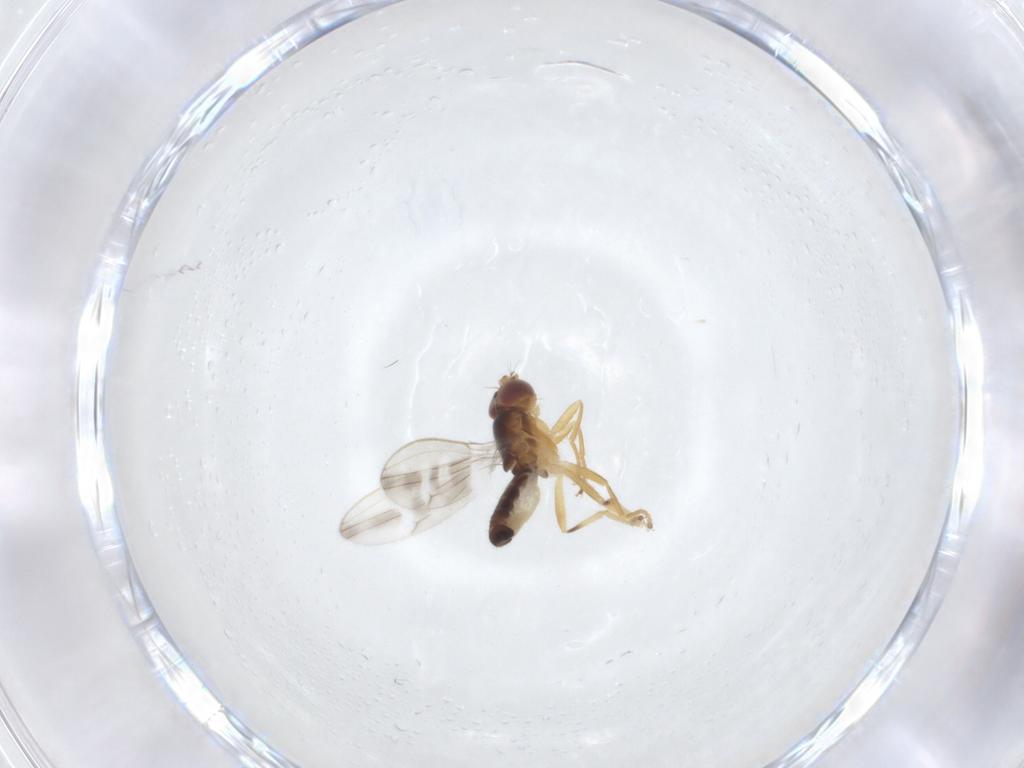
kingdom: Animalia
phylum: Arthropoda
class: Insecta
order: Diptera
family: Periscelididae
